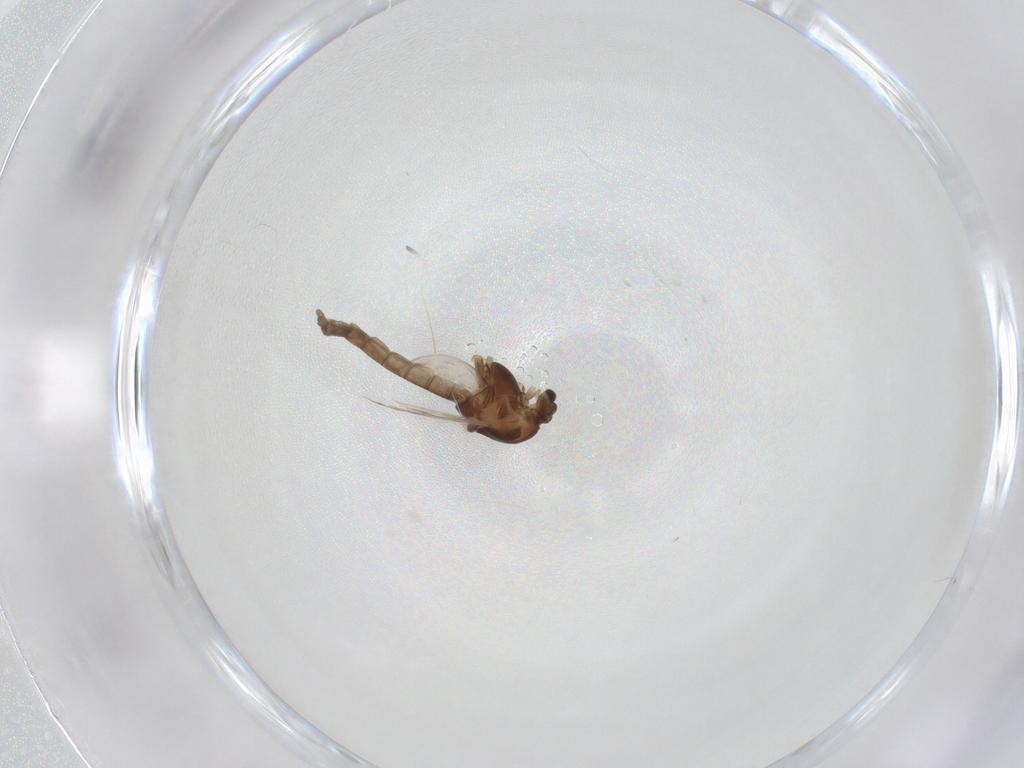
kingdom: Animalia
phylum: Arthropoda
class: Insecta
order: Diptera
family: Chironomidae
